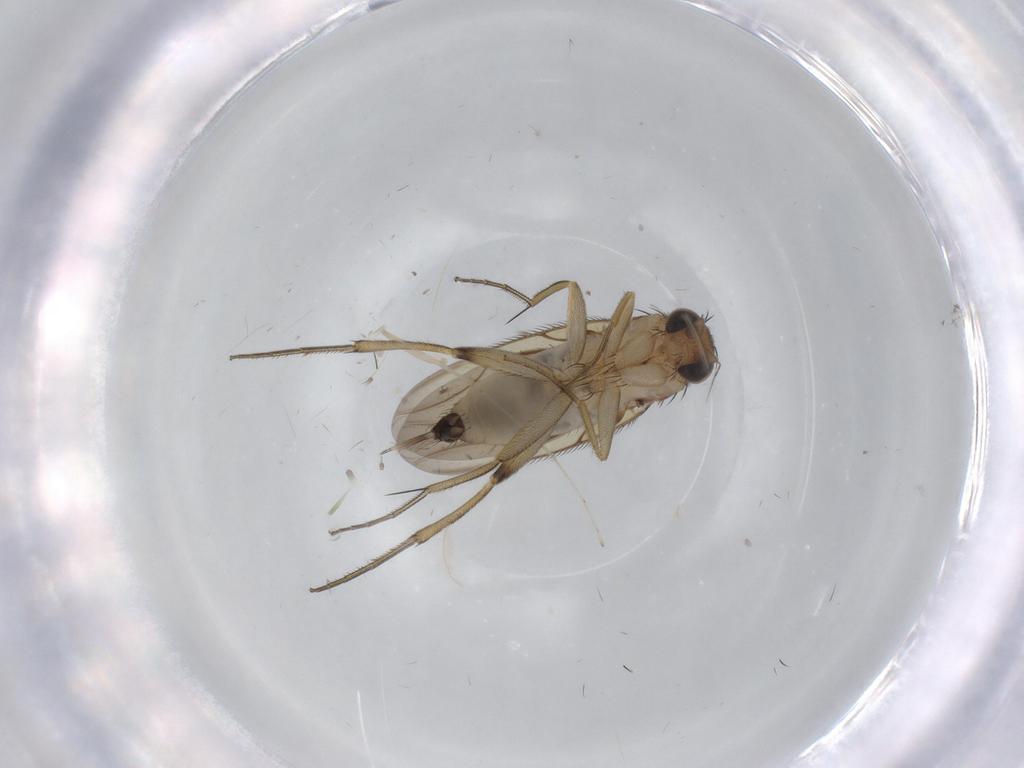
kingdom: Animalia
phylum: Arthropoda
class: Insecta
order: Diptera
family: Phoridae
